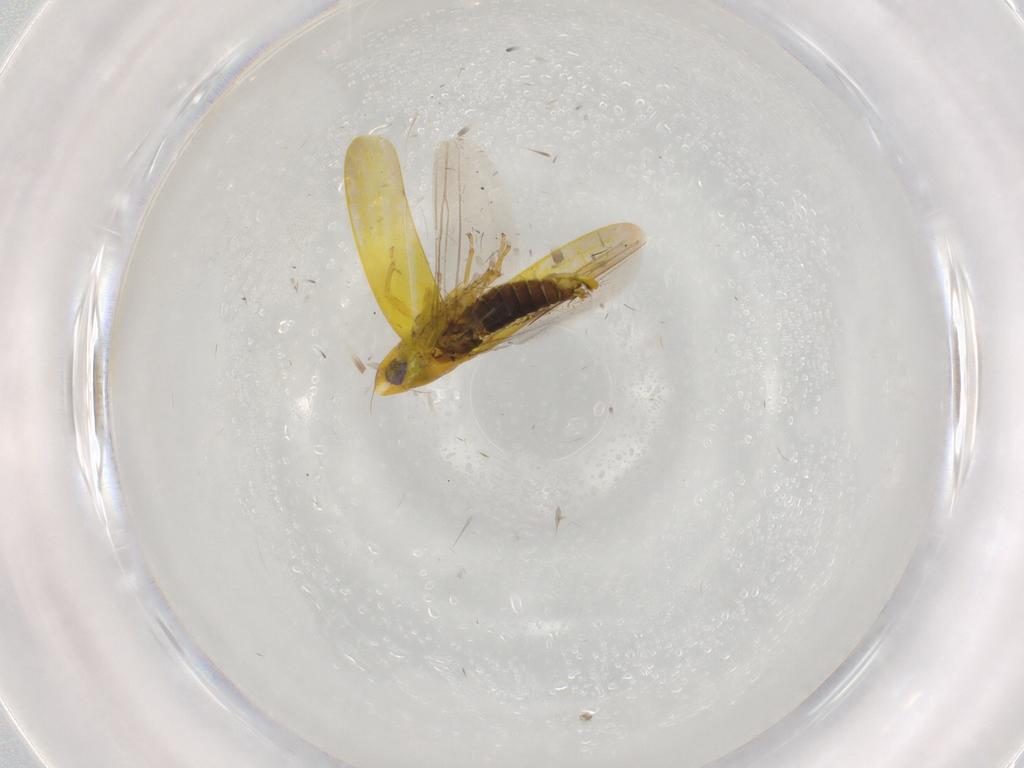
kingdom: Animalia
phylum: Arthropoda
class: Insecta
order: Hemiptera
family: Cicadellidae
